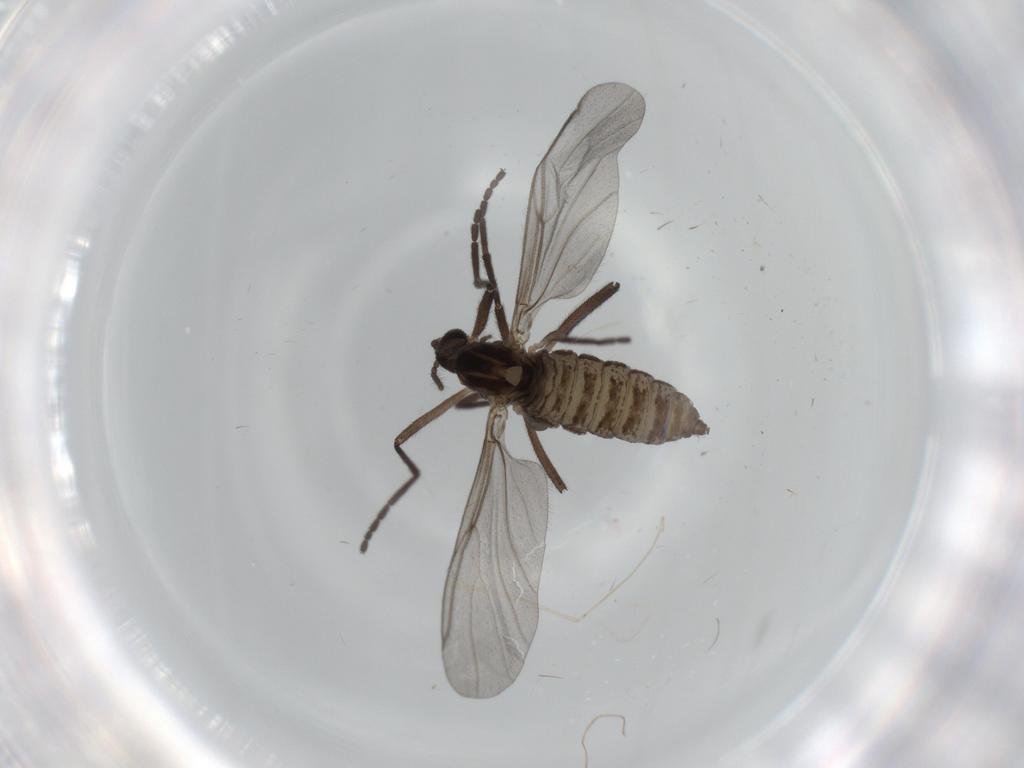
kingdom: Animalia
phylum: Arthropoda
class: Insecta
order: Diptera
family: Cecidomyiidae
